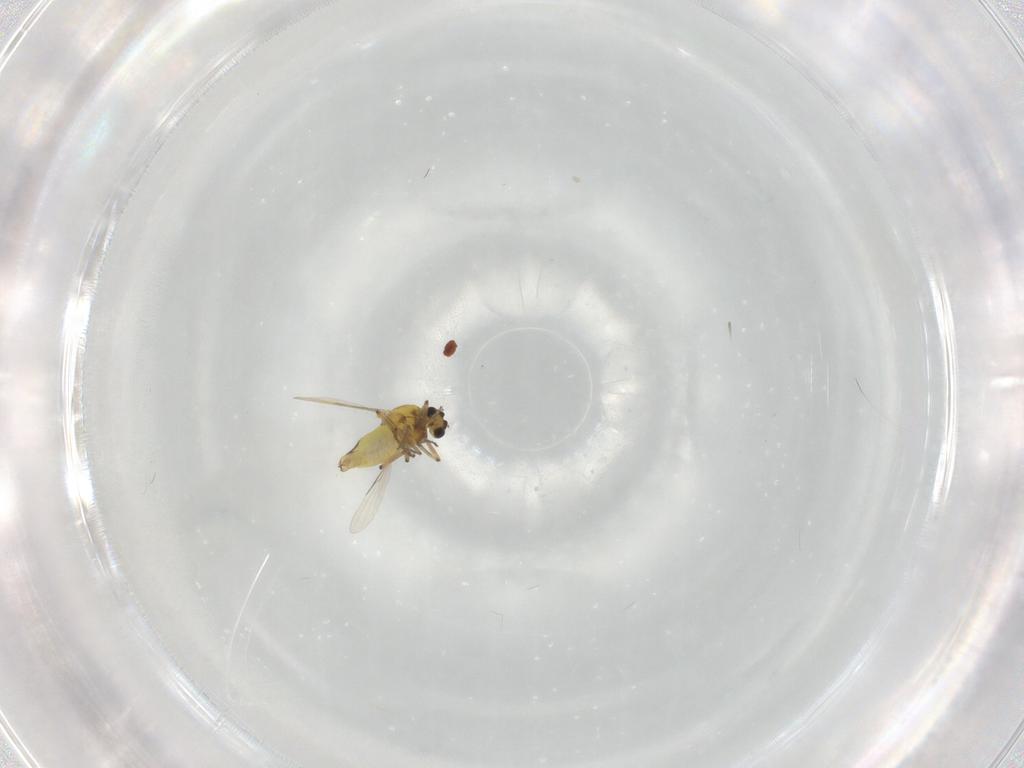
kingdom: Animalia
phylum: Arthropoda
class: Insecta
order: Diptera
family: Ceratopogonidae
